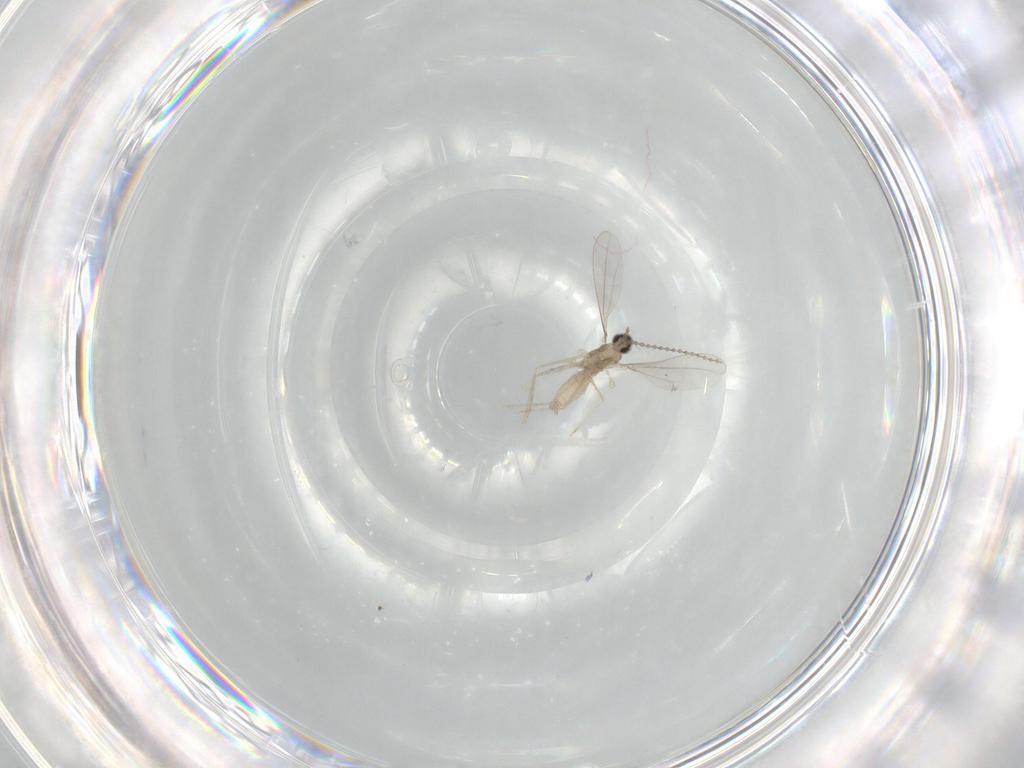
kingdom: Animalia
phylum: Arthropoda
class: Insecta
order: Diptera
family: Cecidomyiidae
